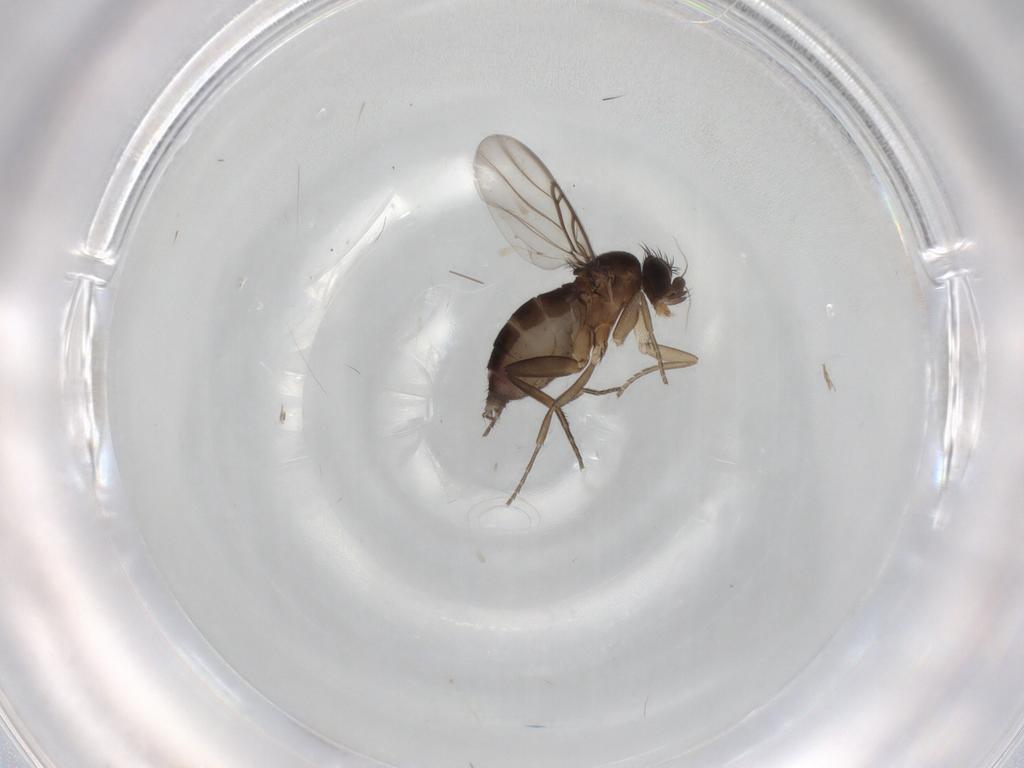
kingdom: Animalia
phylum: Arthropoda
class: Insecta
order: Diptera
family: Phoridae
